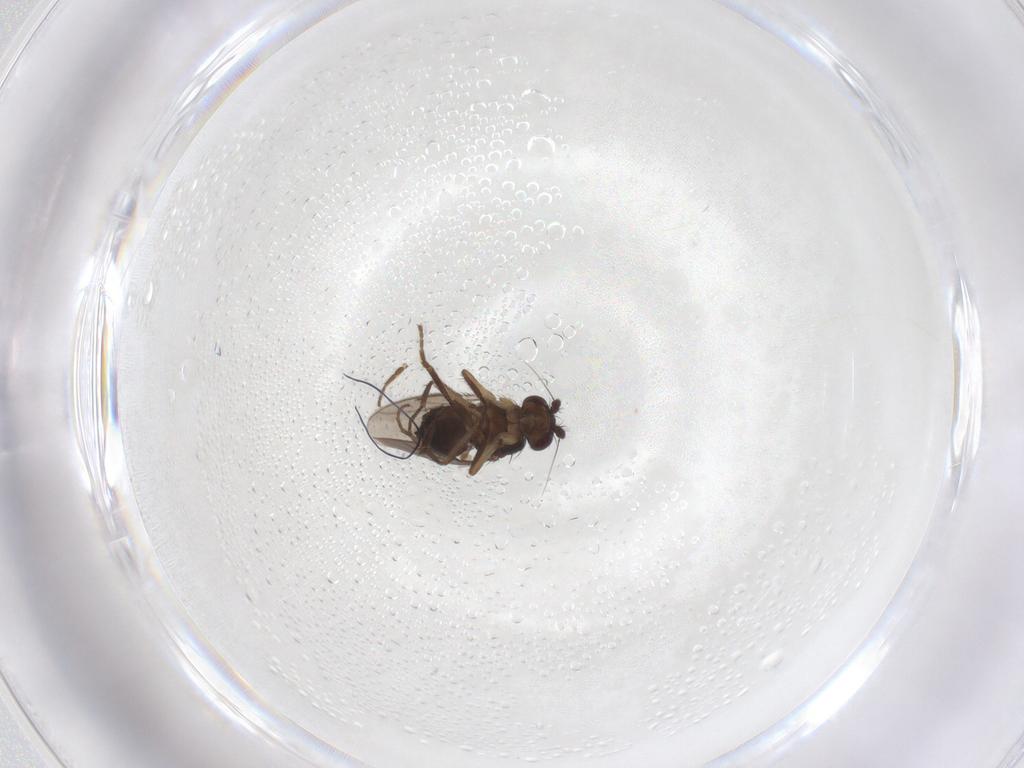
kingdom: Animalia
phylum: Arthropoda
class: Insecta
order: Diptera
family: Sphaeroceridae
